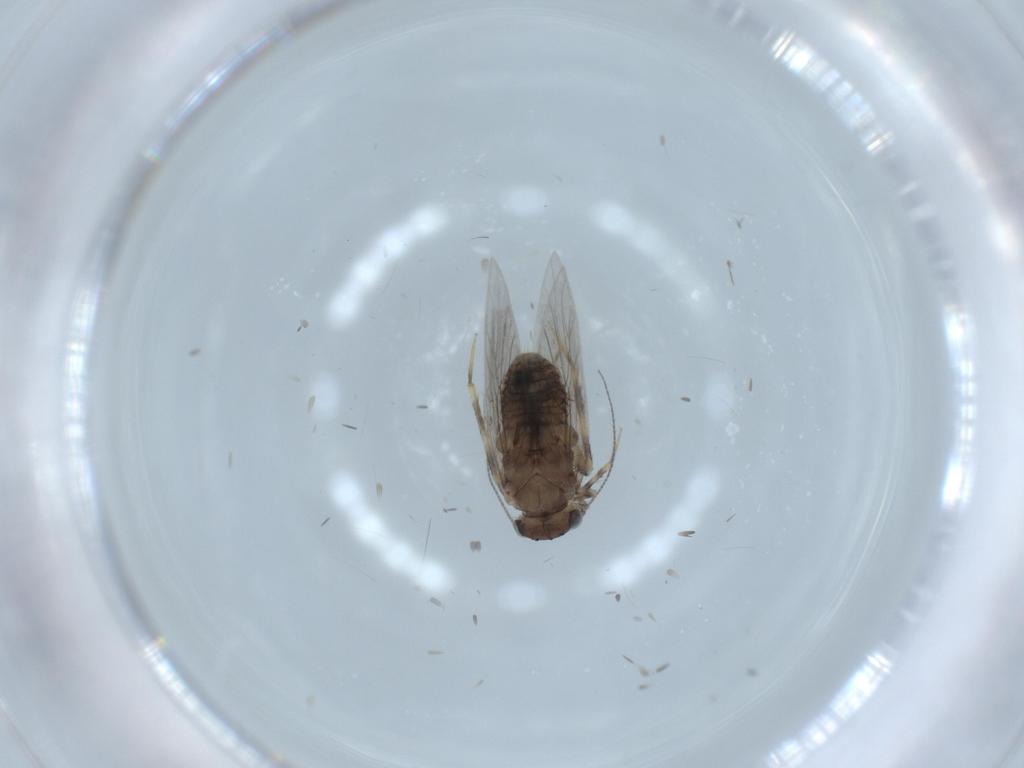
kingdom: Animalia
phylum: Arthropoda
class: Insecta
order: Psocodea
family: Lepidopsocidae
